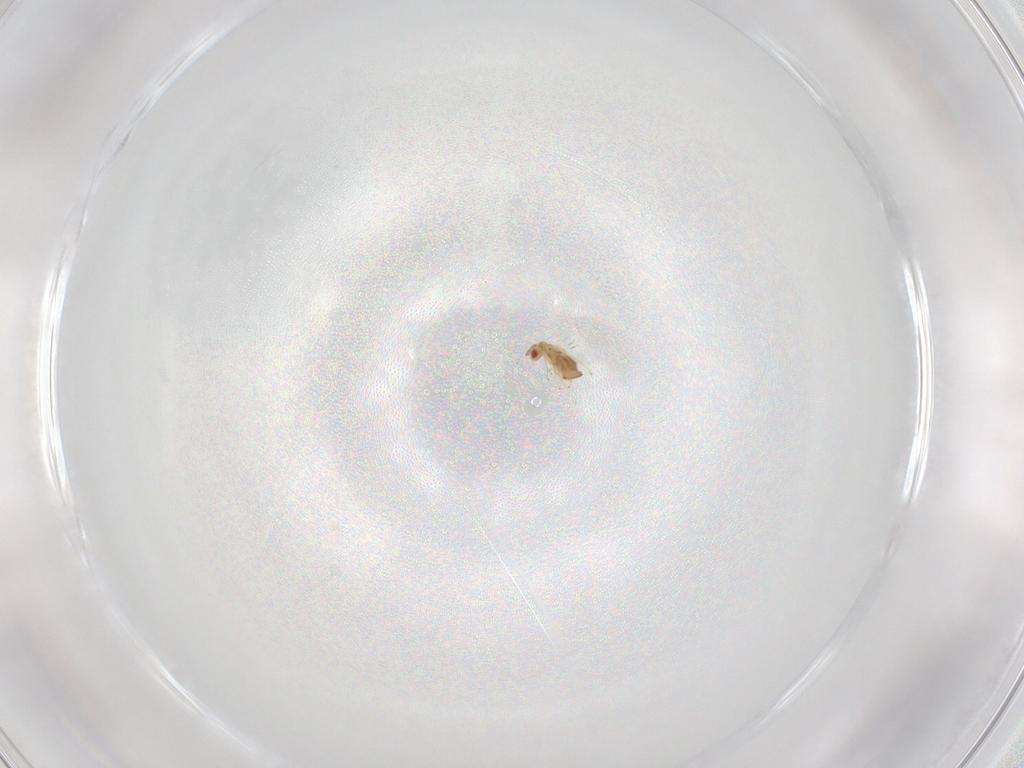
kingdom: Animalia
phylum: Arthropoda
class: Insecta
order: Hymenoptera
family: Trichogrammatidae
